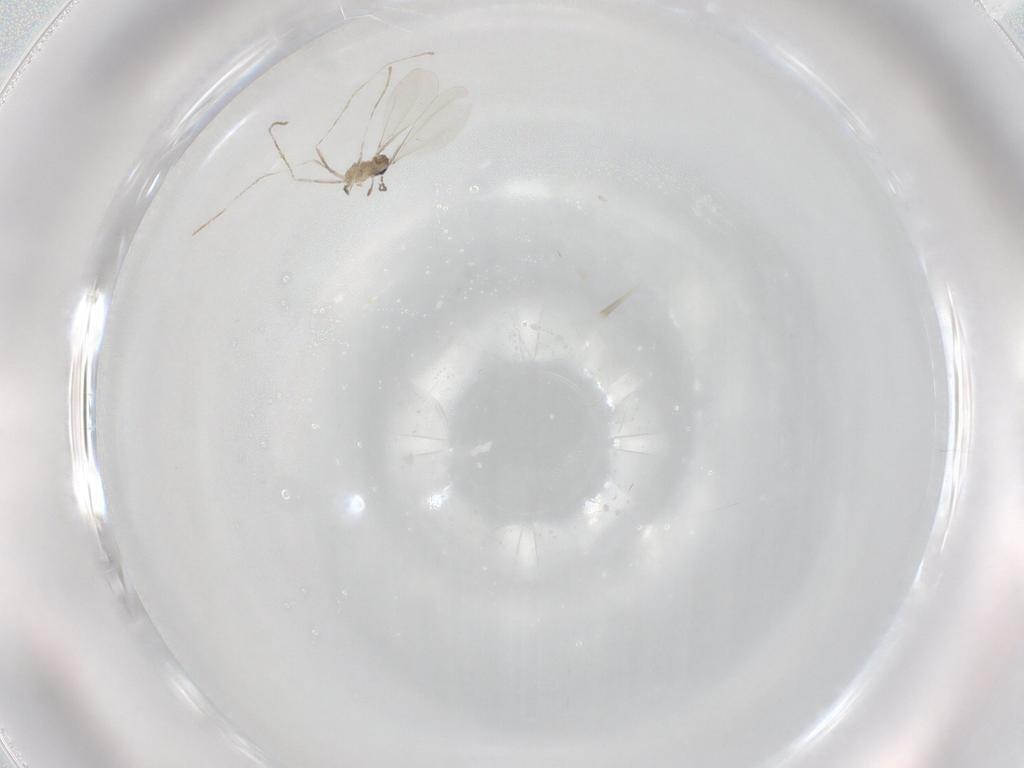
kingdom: Animalia
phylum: Arthropoda
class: Insecta
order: Diptera
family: Cecidomyiidae
